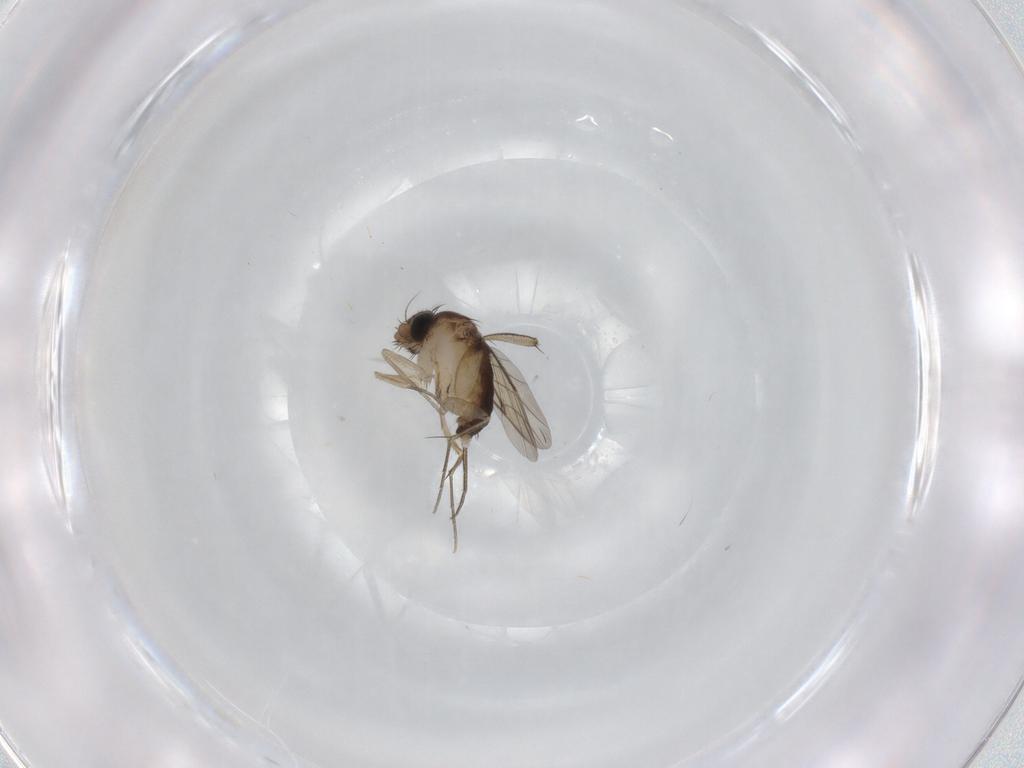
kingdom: Animalia
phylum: Arthropoda
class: Insecta
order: Diptera
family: Phoridae
